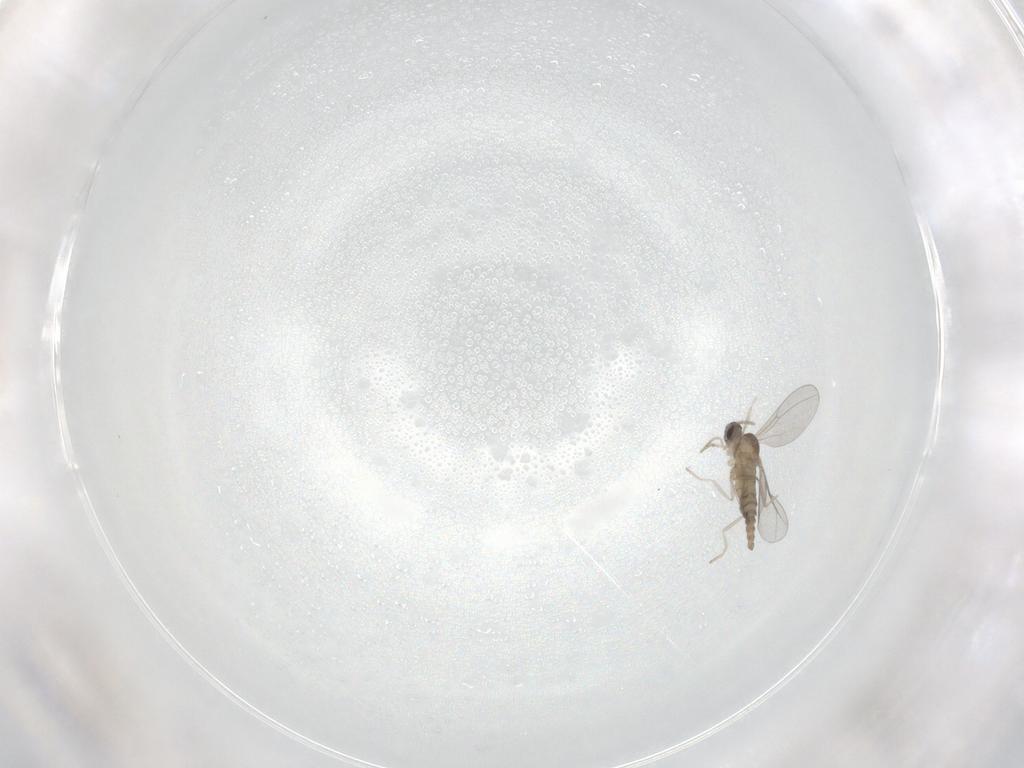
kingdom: Animalia
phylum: Arthropoda
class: Insecta
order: Diptera
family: Cecidomyiidae
